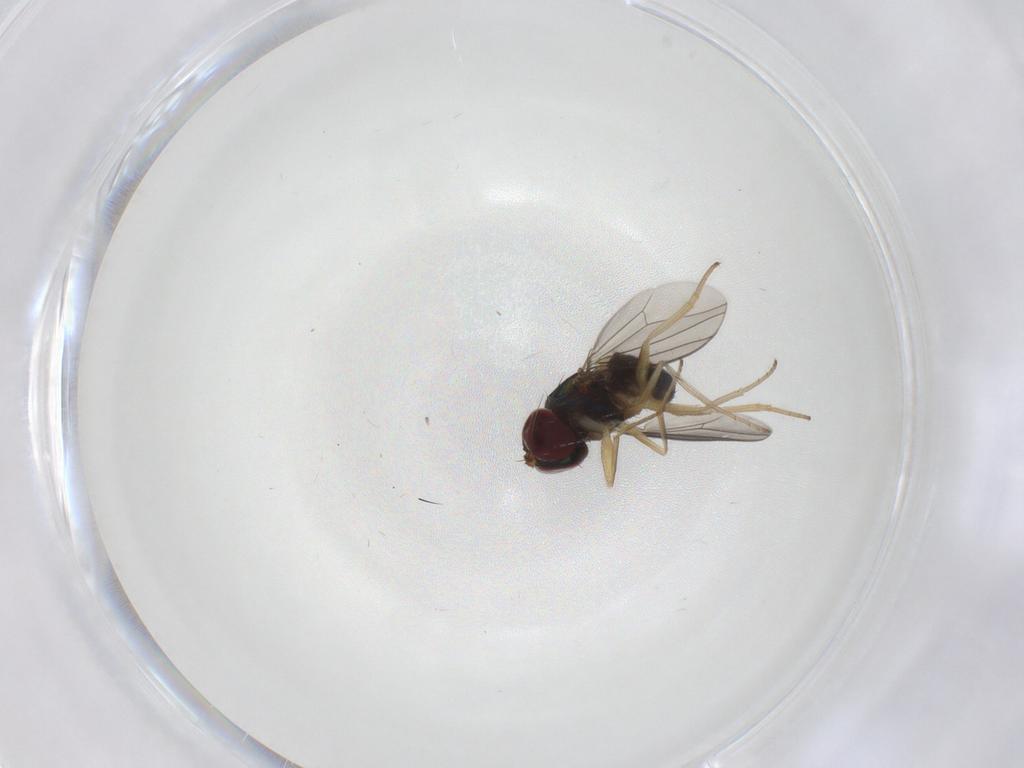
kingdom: Animalia
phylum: Arthropoda
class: Insecta
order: Diptera
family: Dolichopodidae
